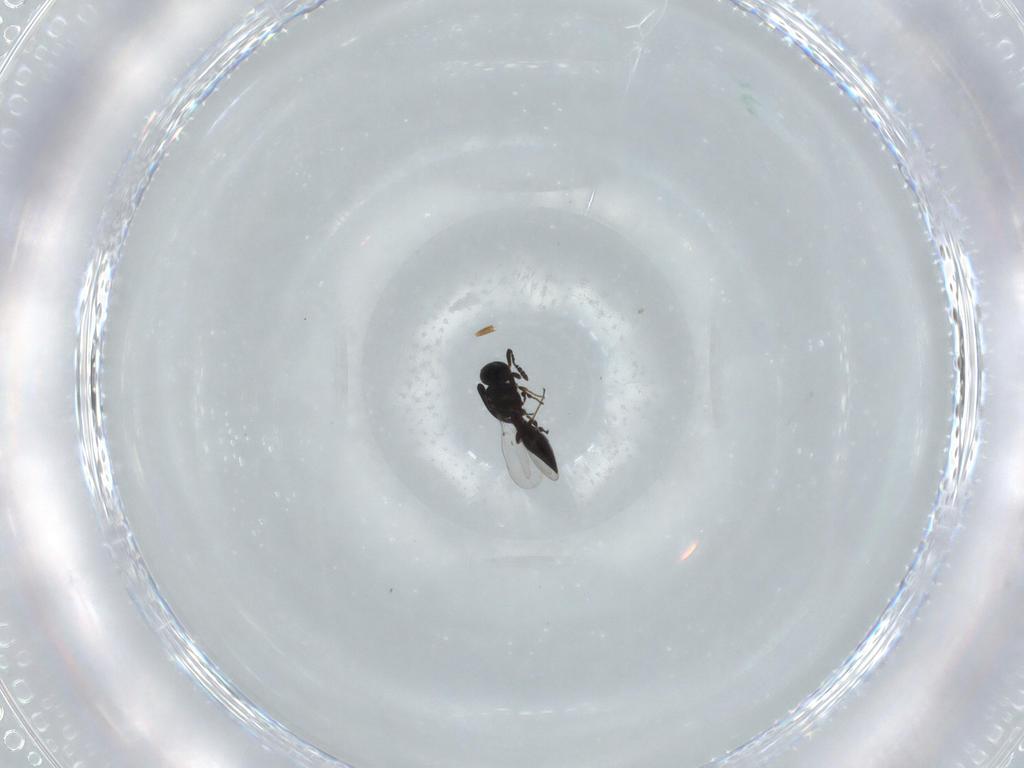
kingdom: Animalia
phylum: Arthropoda
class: Insecta
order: Hymenoptera
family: Platygastridae
